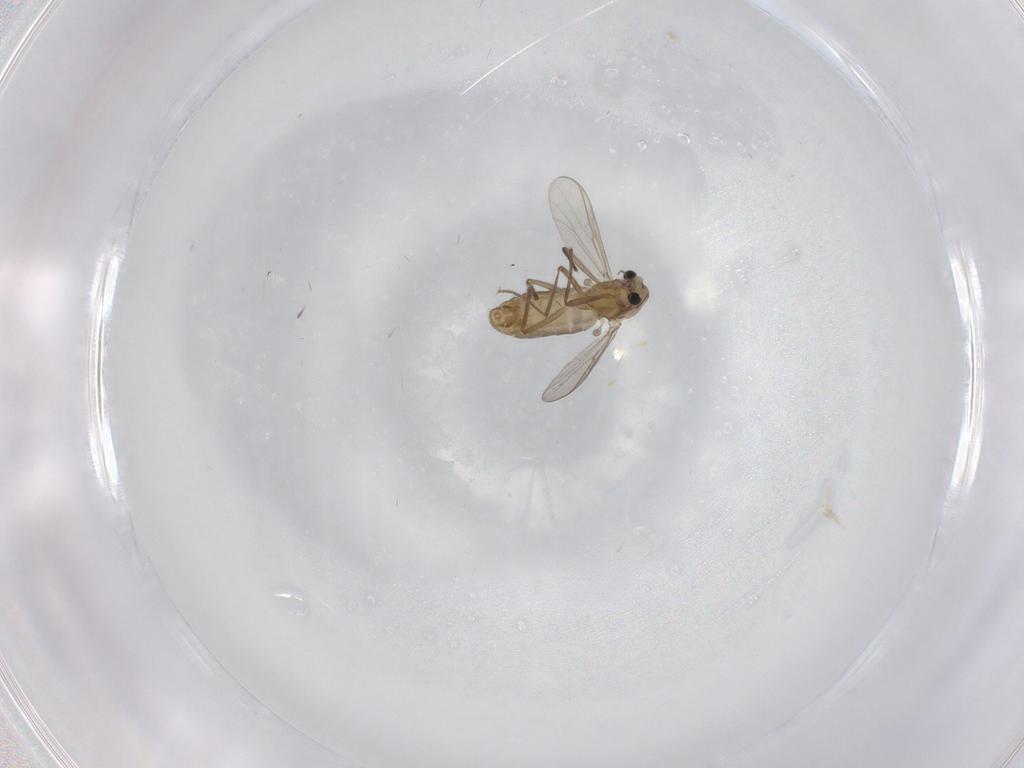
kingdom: Animalia
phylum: Arthropoda
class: Insecta
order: Diptera
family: Chironomidae
